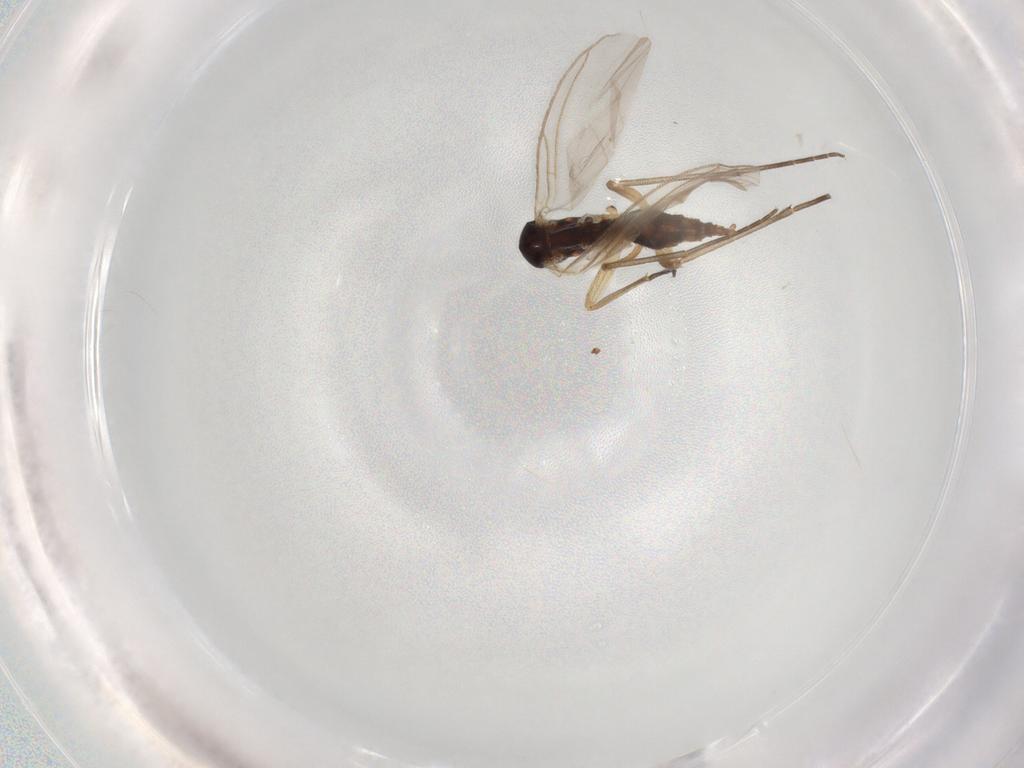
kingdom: Animalia
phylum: Arthropoda
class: Insecta
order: Diptera
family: Sciaridae
